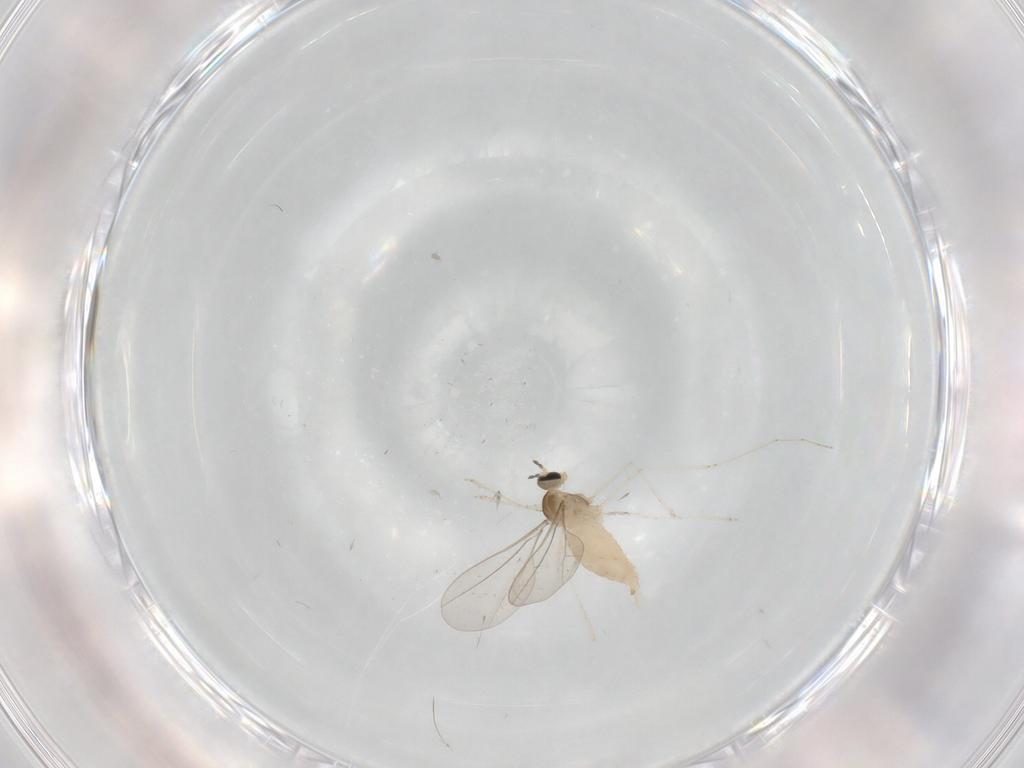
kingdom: Animalia
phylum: Arthropoda
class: Insecta
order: Diptera
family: Cecidomyiidae
